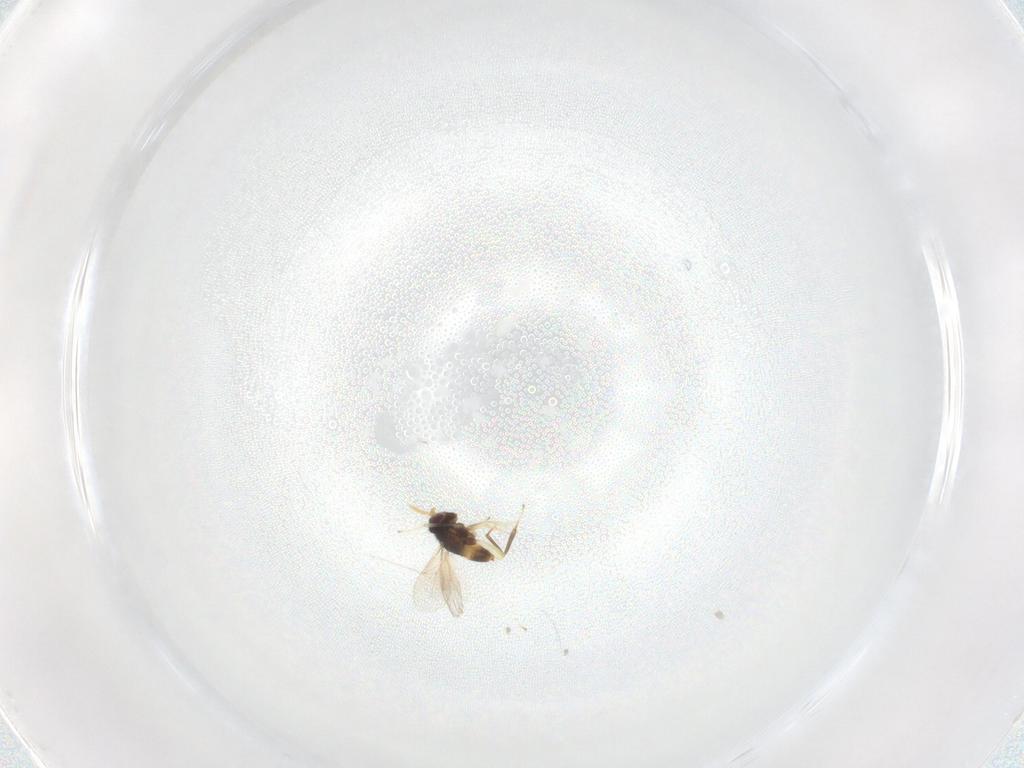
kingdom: Animalia
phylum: Arthropoda
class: Insecta
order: Hymenoptera
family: Aphelinidae
